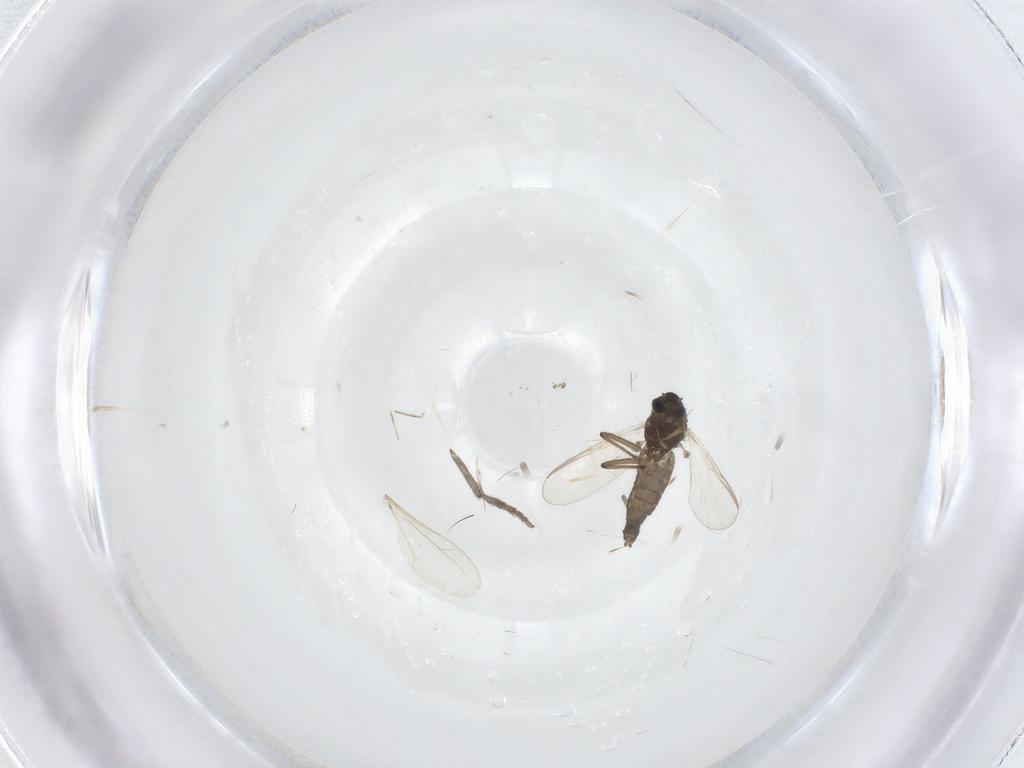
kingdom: Animalia
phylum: Arthropoda
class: Insecta
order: Diptera
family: Chironomidae
